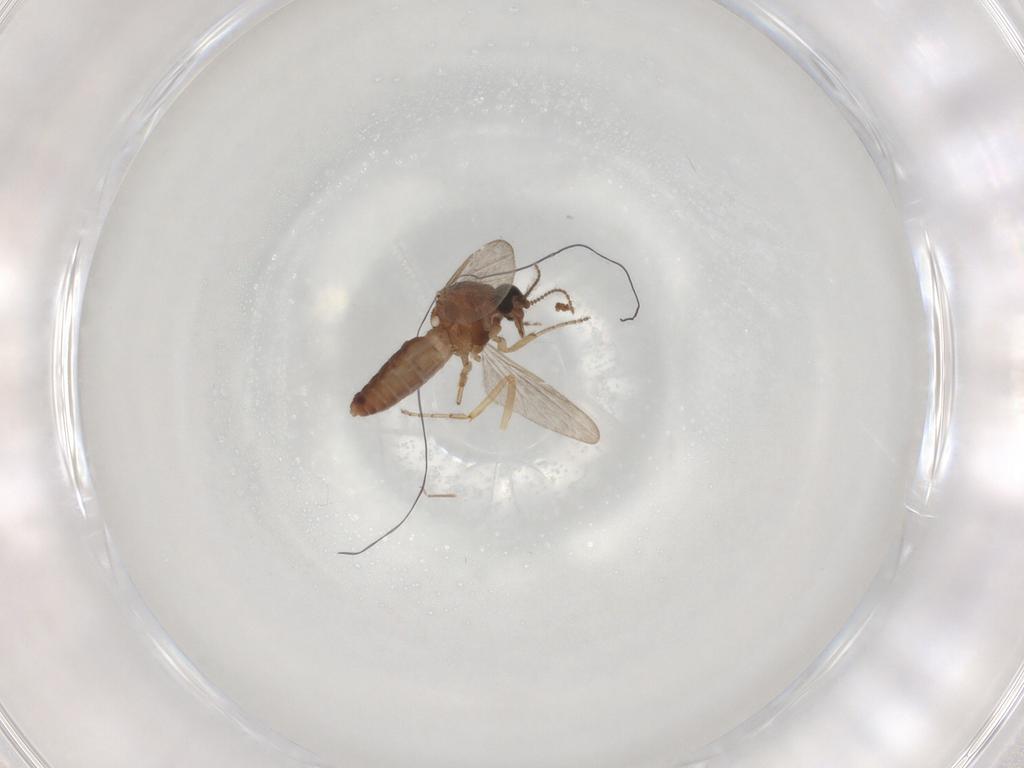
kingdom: Animalia
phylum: Arthropoda
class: Insecta
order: Diptera
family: Ceratopogonidae
